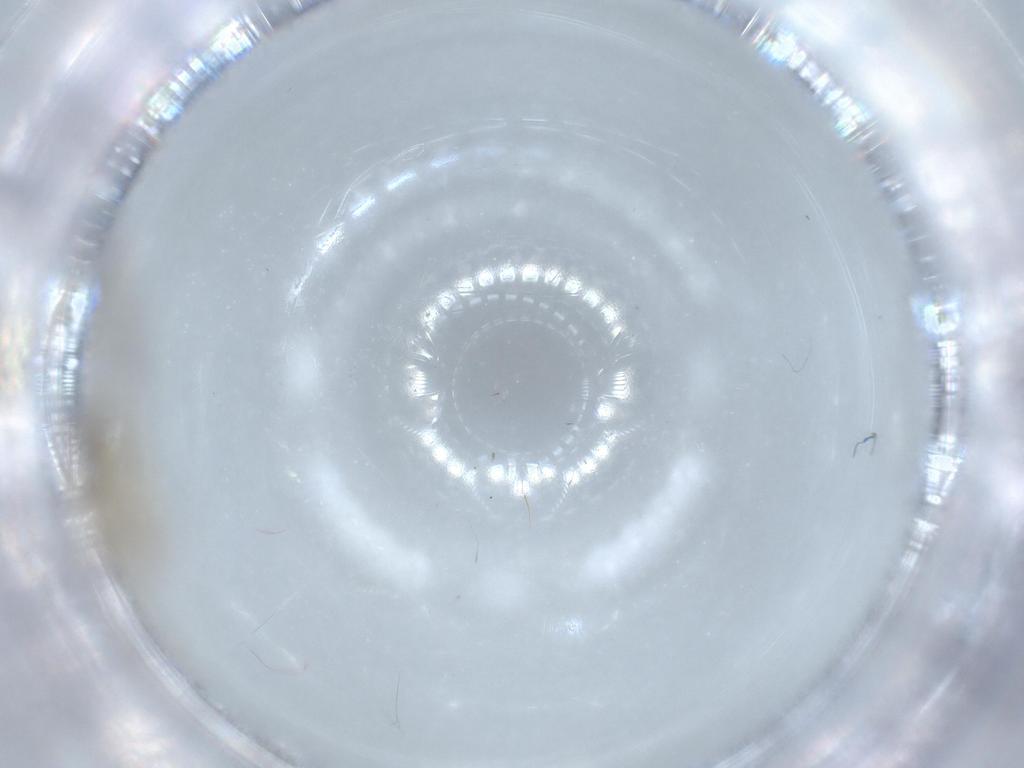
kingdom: Animalia
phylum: Arthropoda
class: Insecta
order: Diptera
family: Cecidomyiidae
